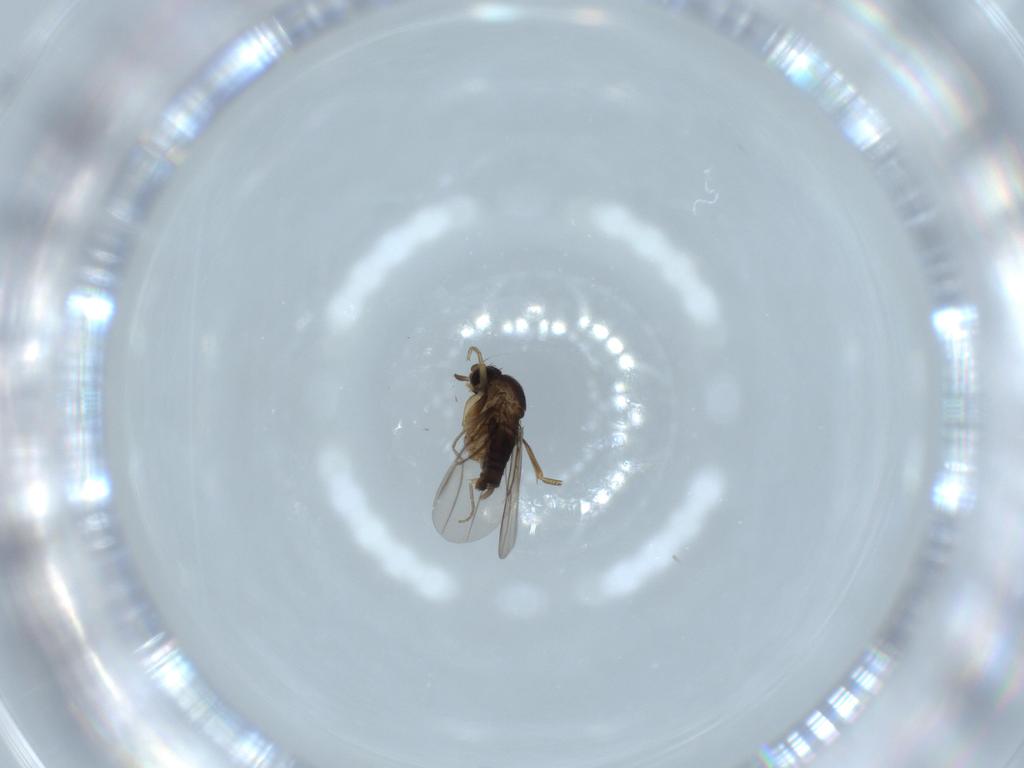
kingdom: Animalia
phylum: Arthropoda
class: Insecta
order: Diptera
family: Phoridae
